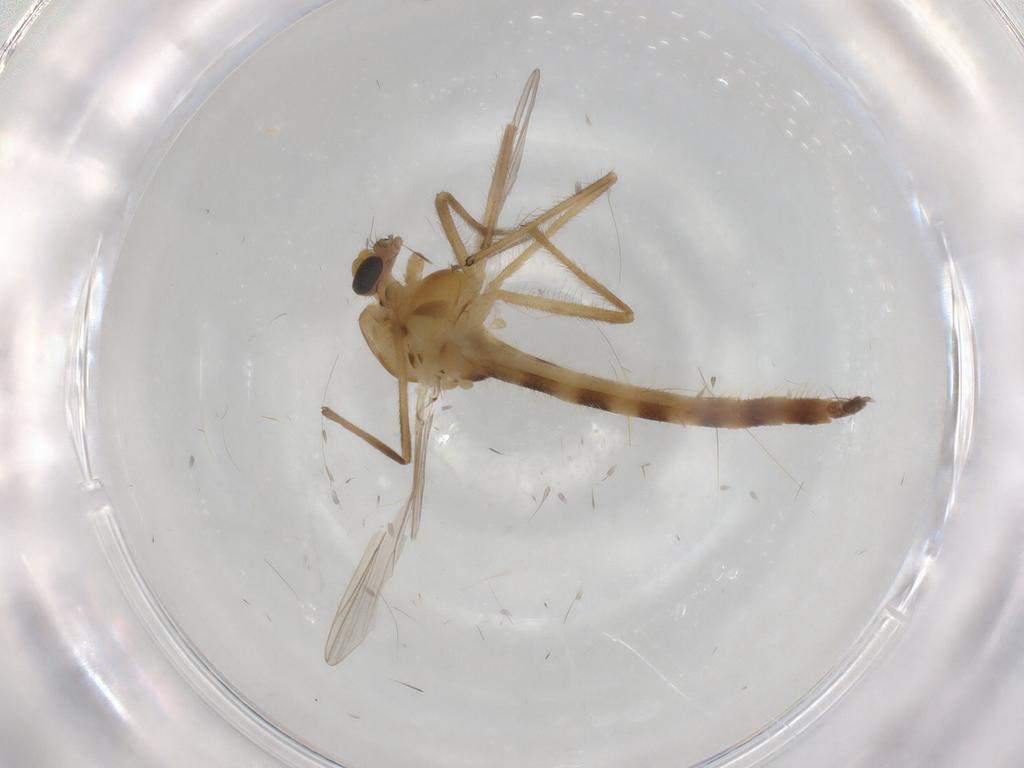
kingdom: Animalia
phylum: Arthropoda
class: Insecta
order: Diptera
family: Chironomidae
